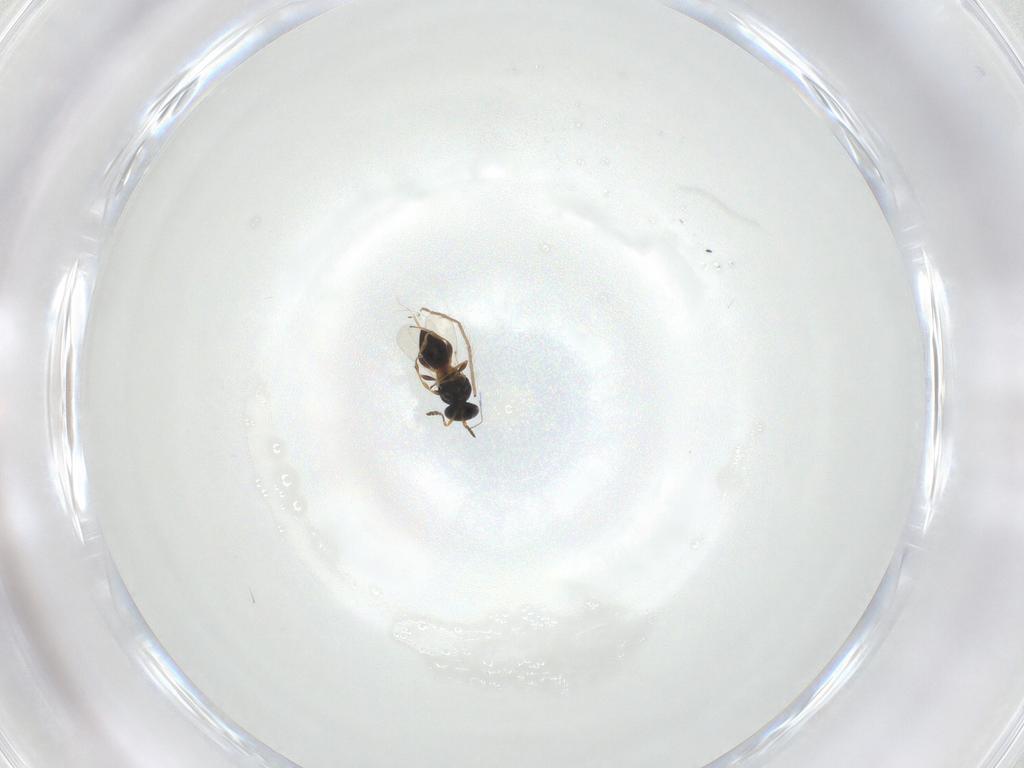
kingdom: Animalia
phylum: Arthropoda
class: Insecta
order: Hymenoptera
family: Platygastridae
